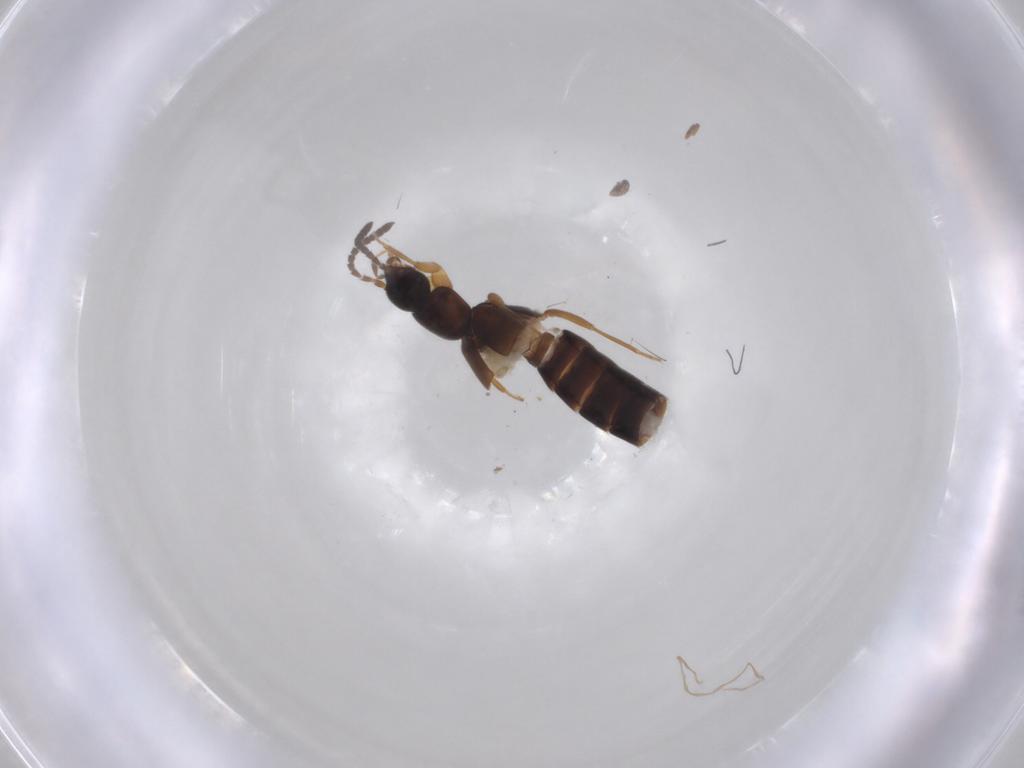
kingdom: Animalia
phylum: Arthropoda
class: Insecta
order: Coleoptera
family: Staphylinidae
